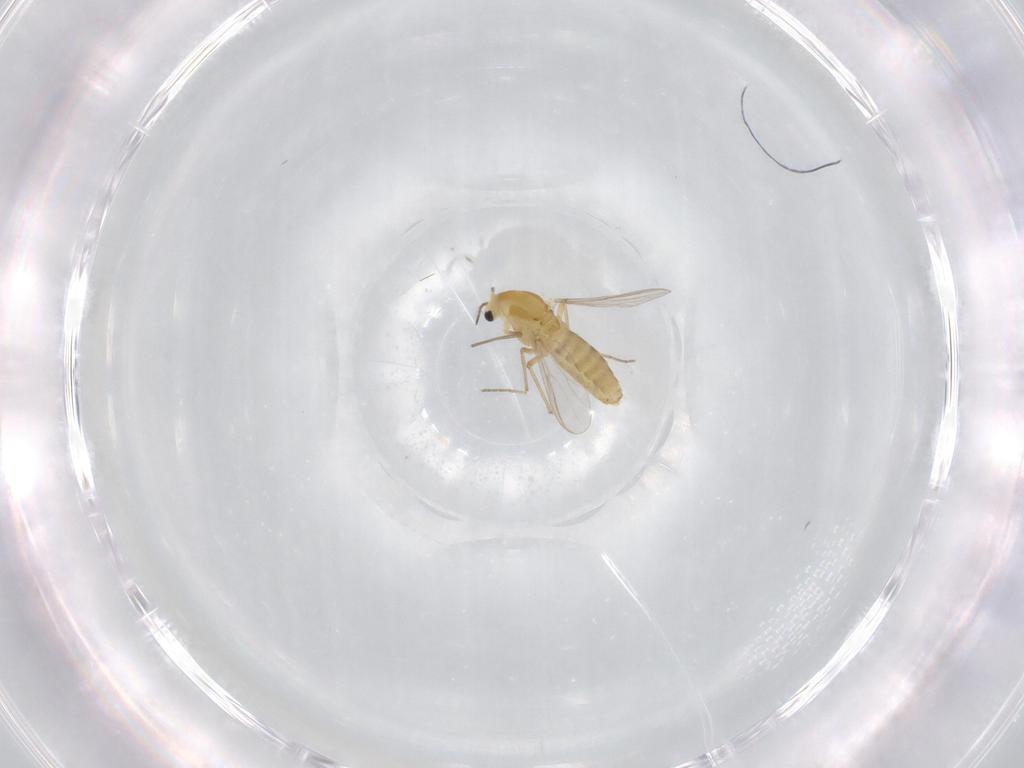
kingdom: Animalia
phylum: Arthropoda
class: Insecta
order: Diptera
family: Chironomidae
